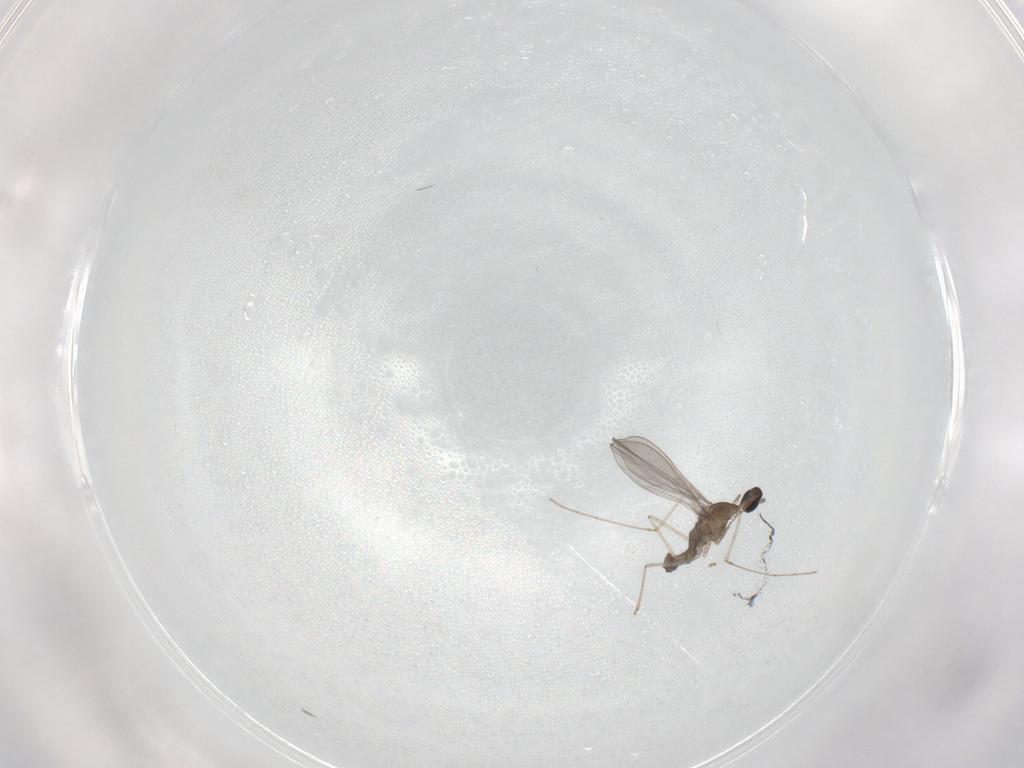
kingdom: Animalia
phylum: Arthropoda
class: Insecta
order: Diptera
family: Cecidomyiidae
